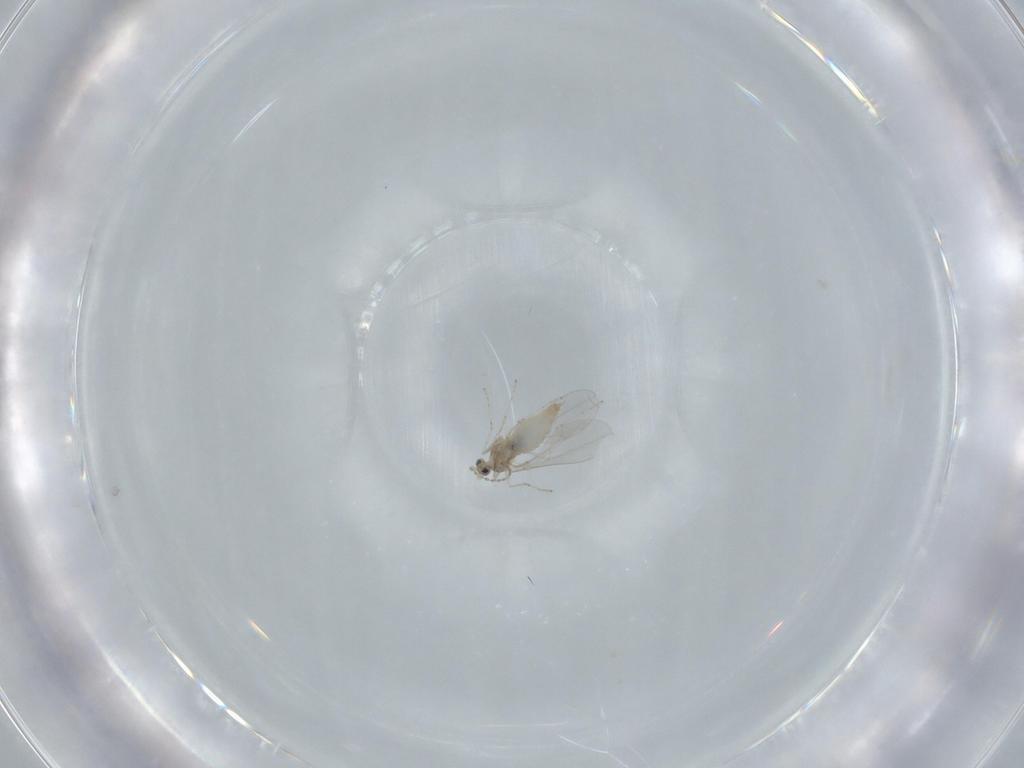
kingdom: Animalia
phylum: Arthropoda
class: Insecta
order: Diptera
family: Cecidomyiidae
